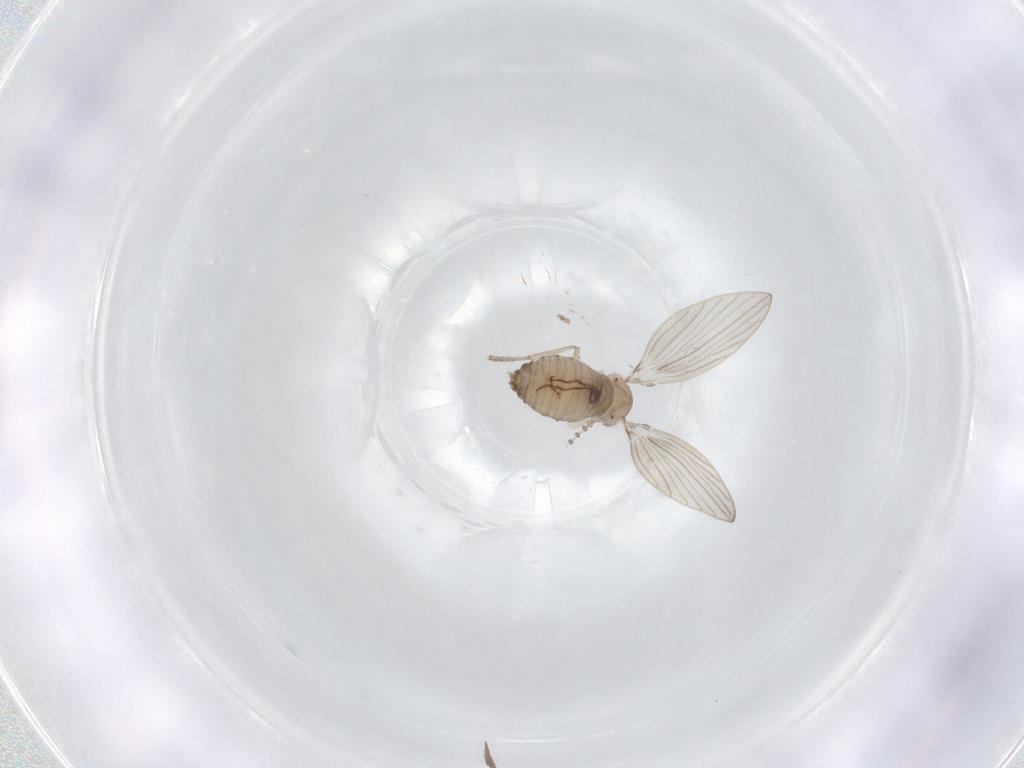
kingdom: Animalia
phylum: Arthropoda
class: Insecta
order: Diptera
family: Psychodidae
